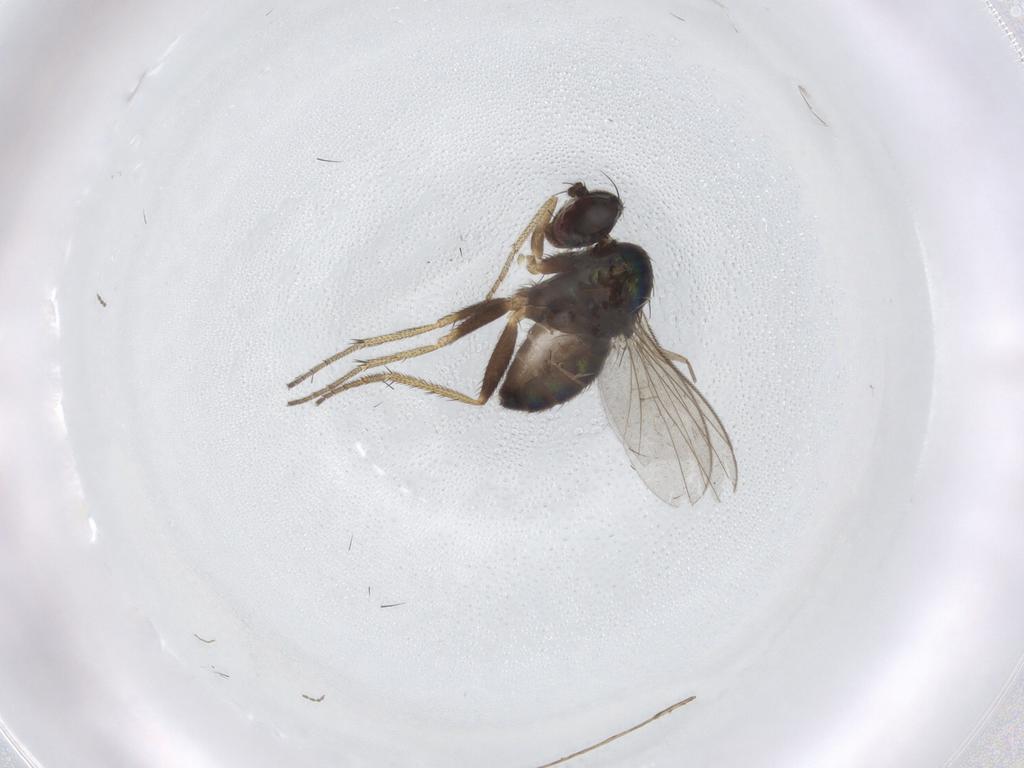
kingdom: Animalia
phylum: Arthropoda
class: Insecta
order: Diptera
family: Cecidomyiidae
